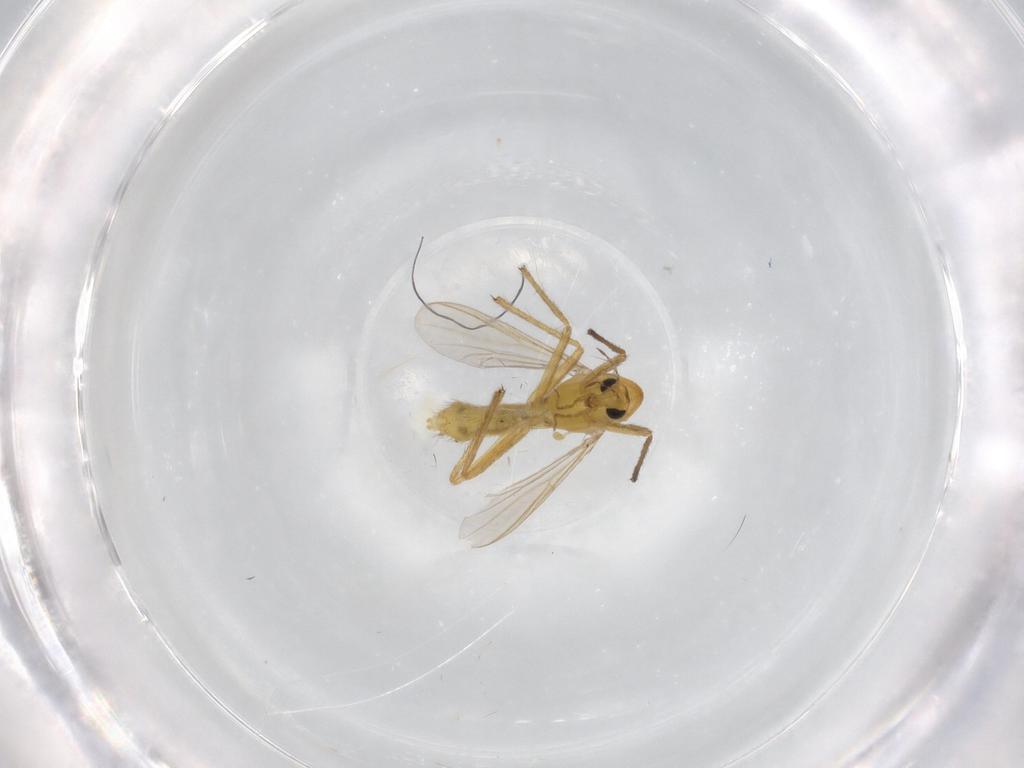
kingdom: Animalia
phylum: Arthropoda
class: Insecta
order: Diptera
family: Chironomidae
